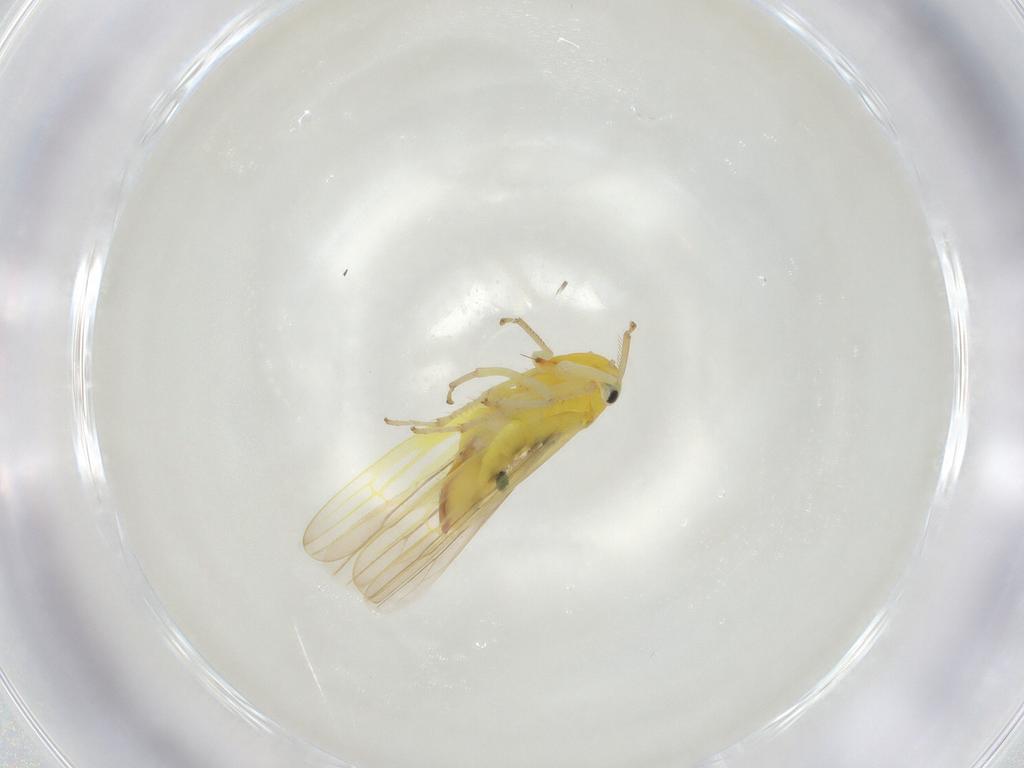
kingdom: Animalia
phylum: Arthropoda
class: Insecta
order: Hemiptera
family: Cicadellidae
